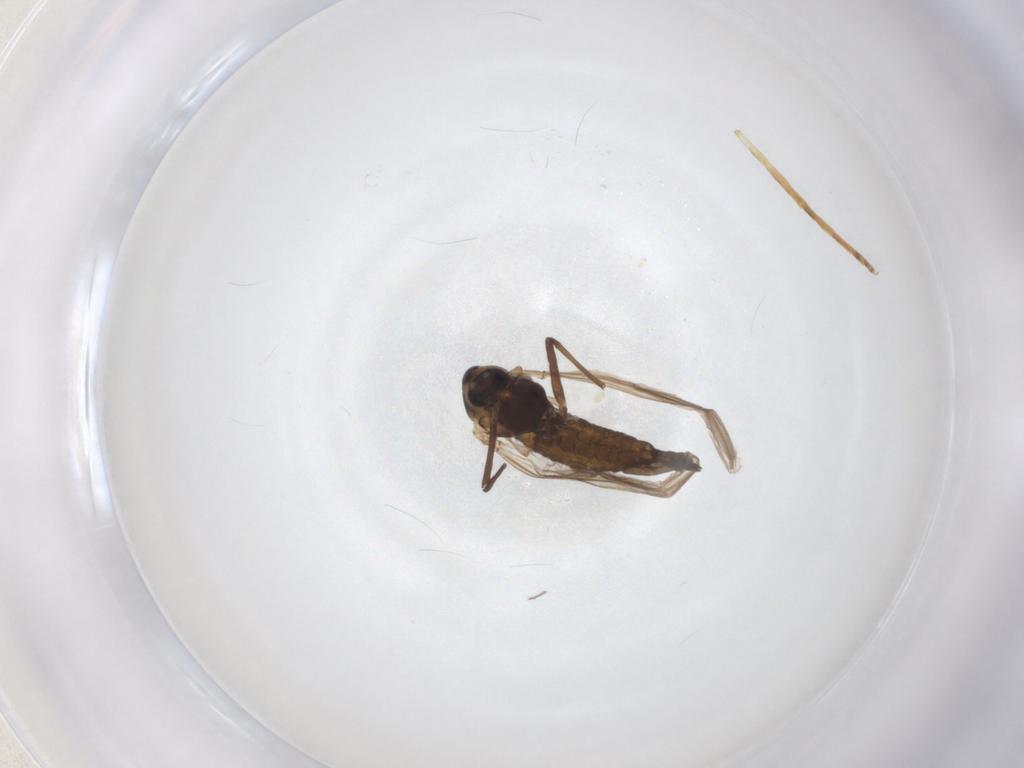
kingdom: Animalia
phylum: Arthropoda
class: Insecta
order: Diptera
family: Chironomidae
